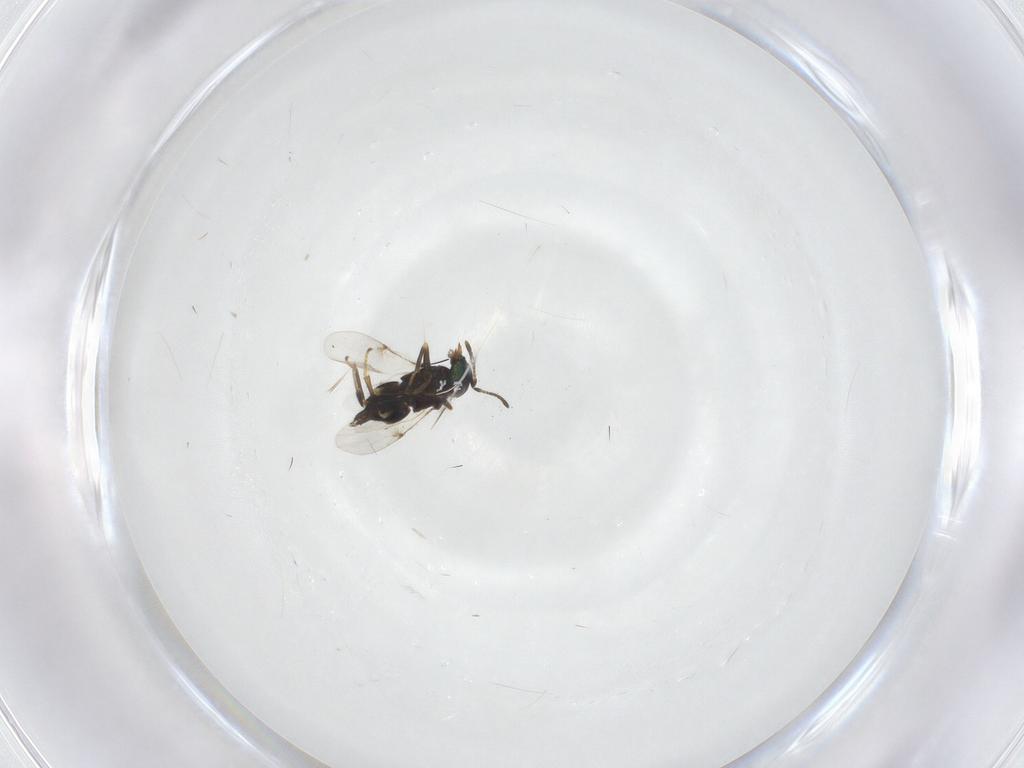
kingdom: Animalia
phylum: Arthropoda
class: Insecta
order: Hymenoptera
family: Encyrtidae
